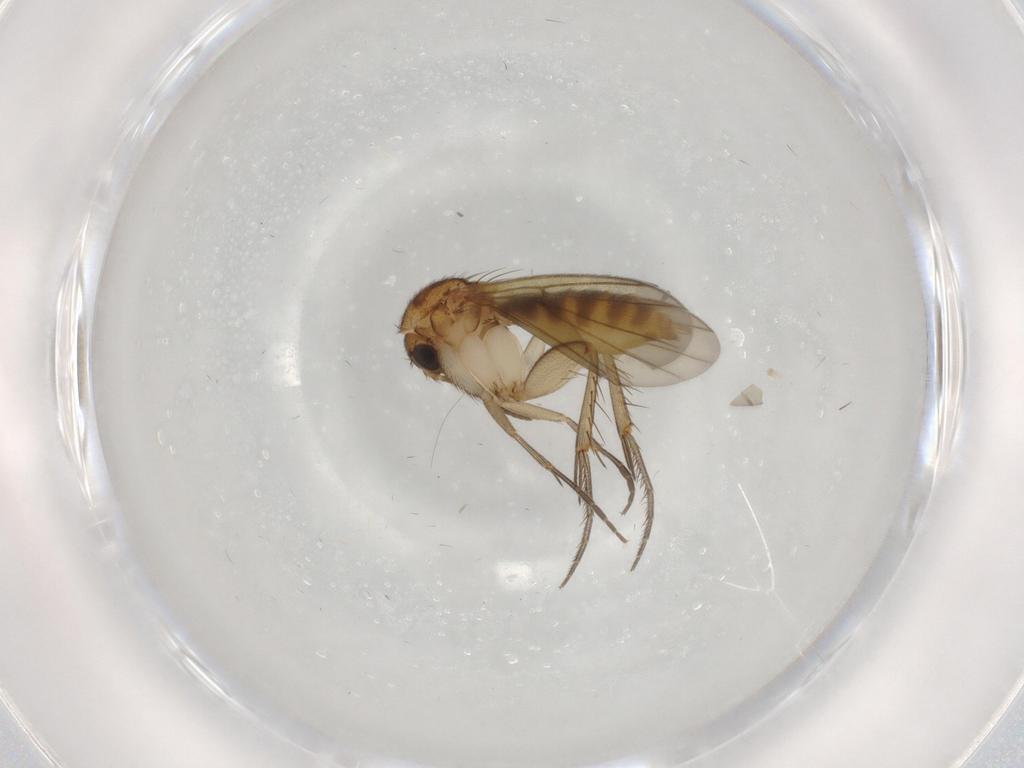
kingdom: Animalia
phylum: Arthropoda
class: Insecta
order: Diptera
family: Mycetophilidae
